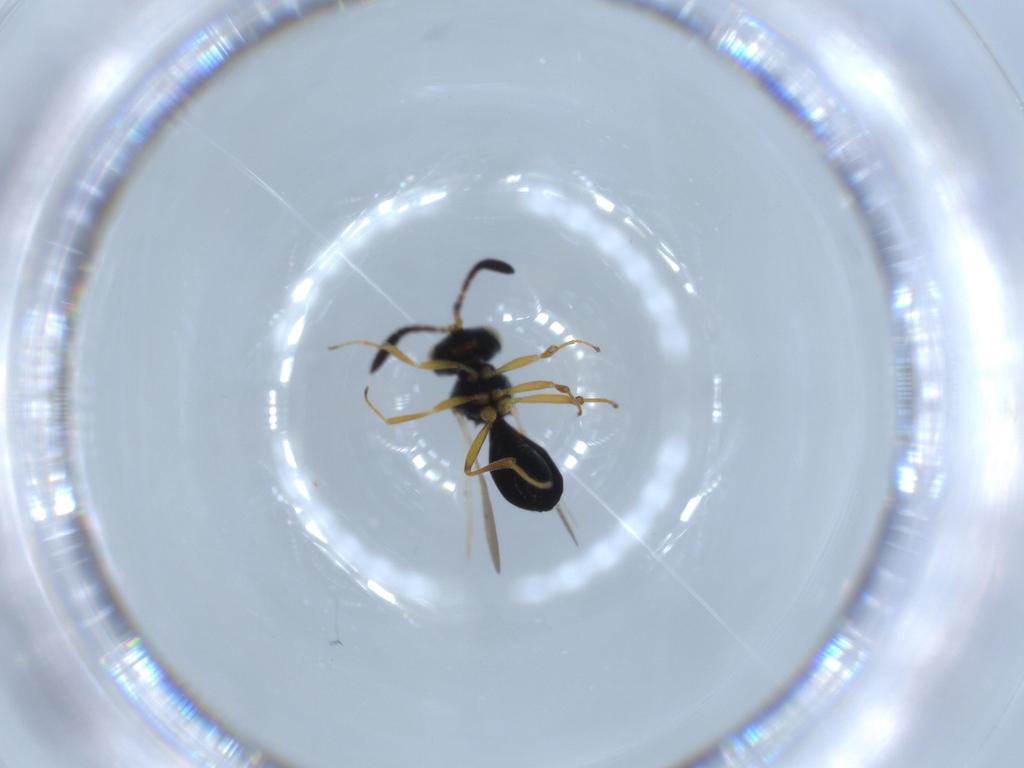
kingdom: Animalia
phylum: Arthropoda
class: Insecta
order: Hymenoptera
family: Scelionidae
